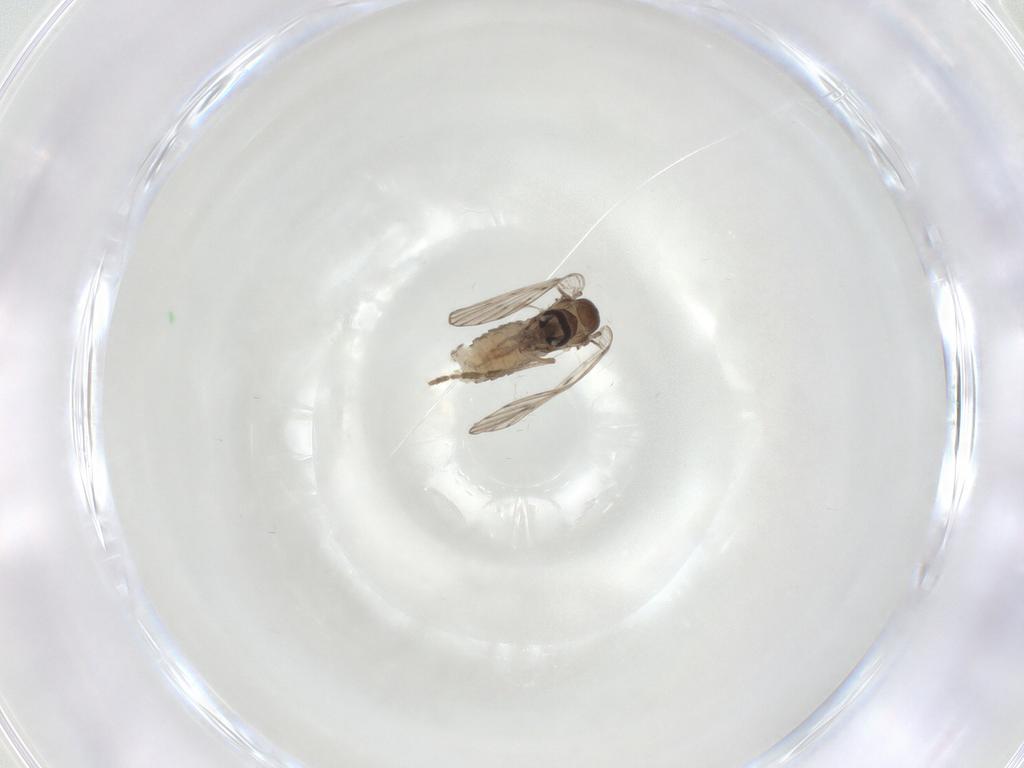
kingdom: Animalia
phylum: Arthropoda
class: Insecta
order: Diptera
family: Psychodidae
